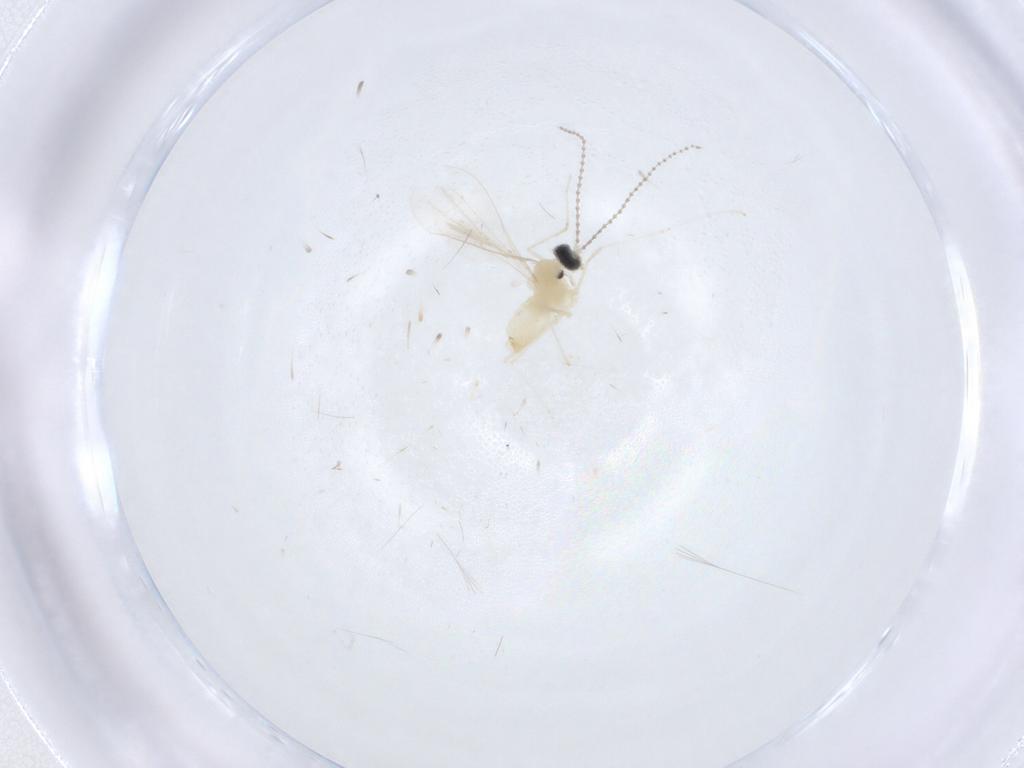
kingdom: Animalia
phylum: Arthropoda
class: Insecta
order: Diptera
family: Cecidomyiidae
